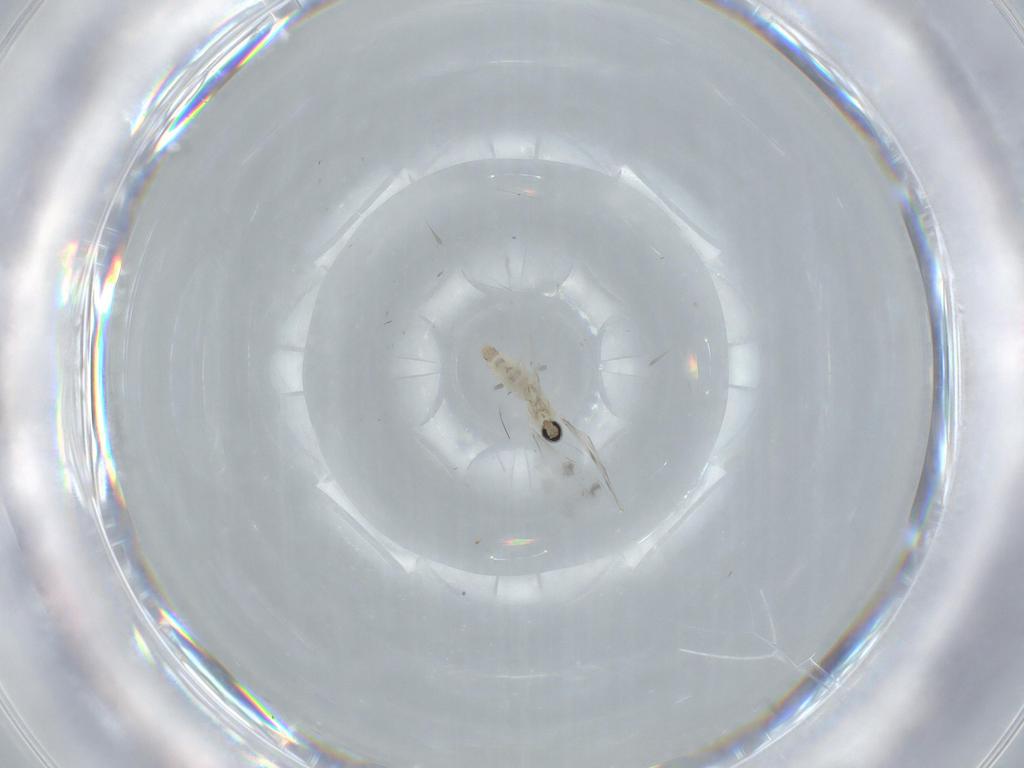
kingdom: Animalia
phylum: Arthropoda
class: Insecta
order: Diptera
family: Cecidomyiidae
